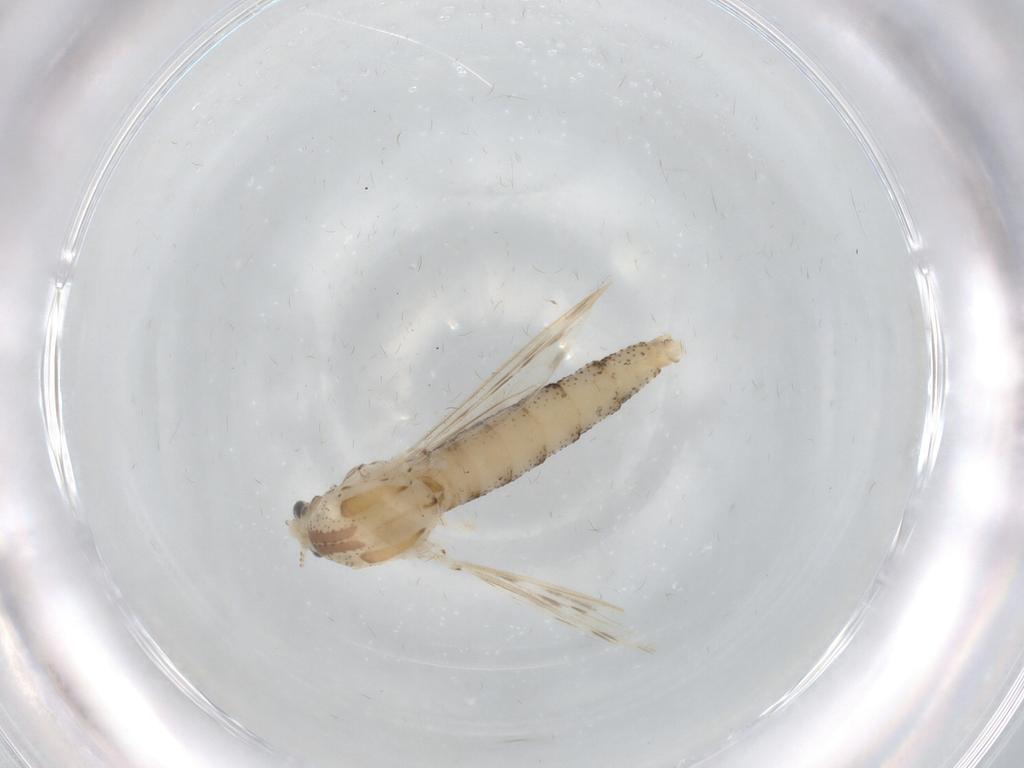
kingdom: Animalia
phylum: Arthropoda
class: Insecta
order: Diptera
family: Chaoboridae
